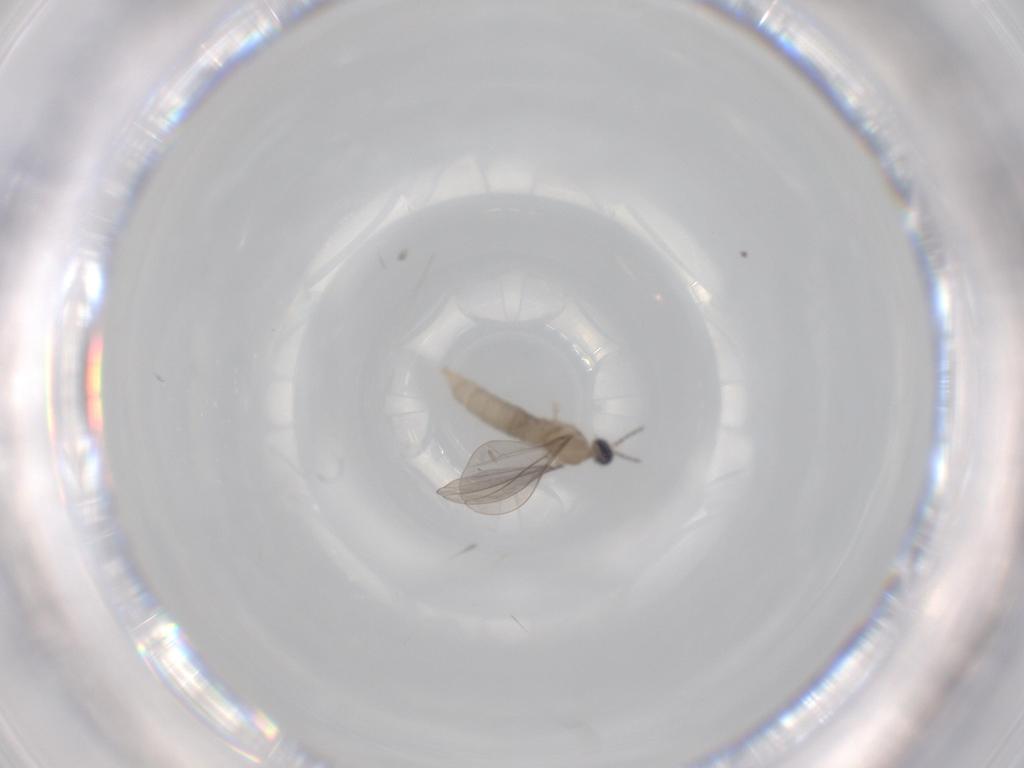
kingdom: Animalia
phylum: Arthropoda
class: Insecta
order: Diptera
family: Cecidomyiidae
